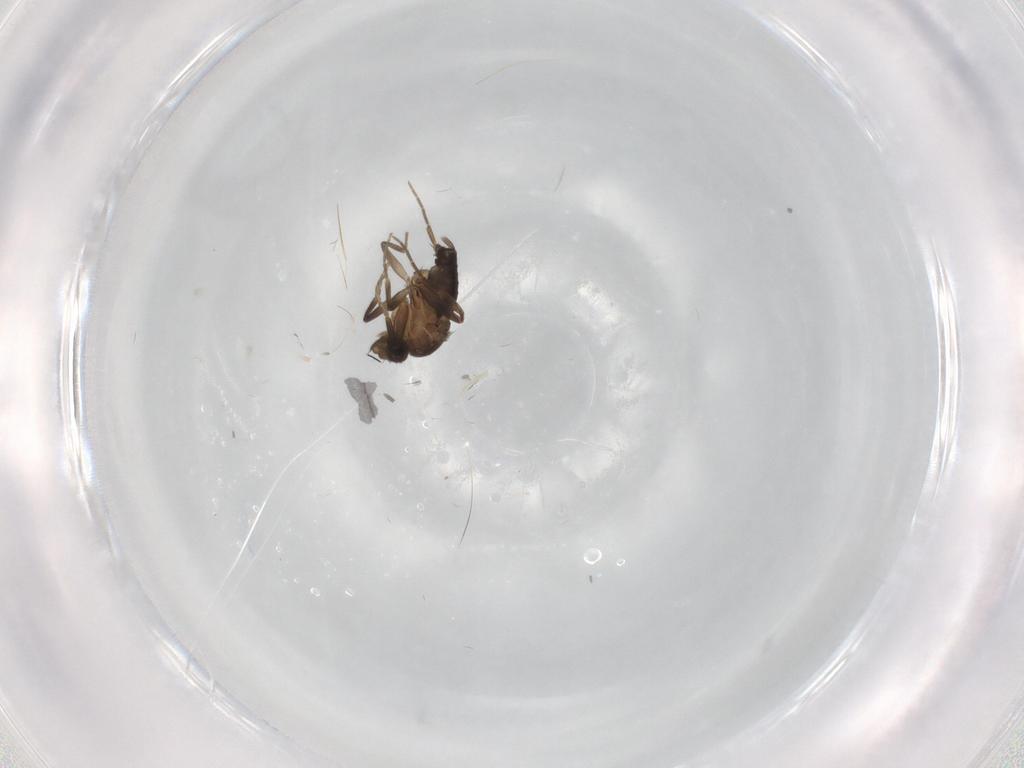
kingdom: Animalia
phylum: Arthropoda
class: Insecta
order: Diptera
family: Phoridae
